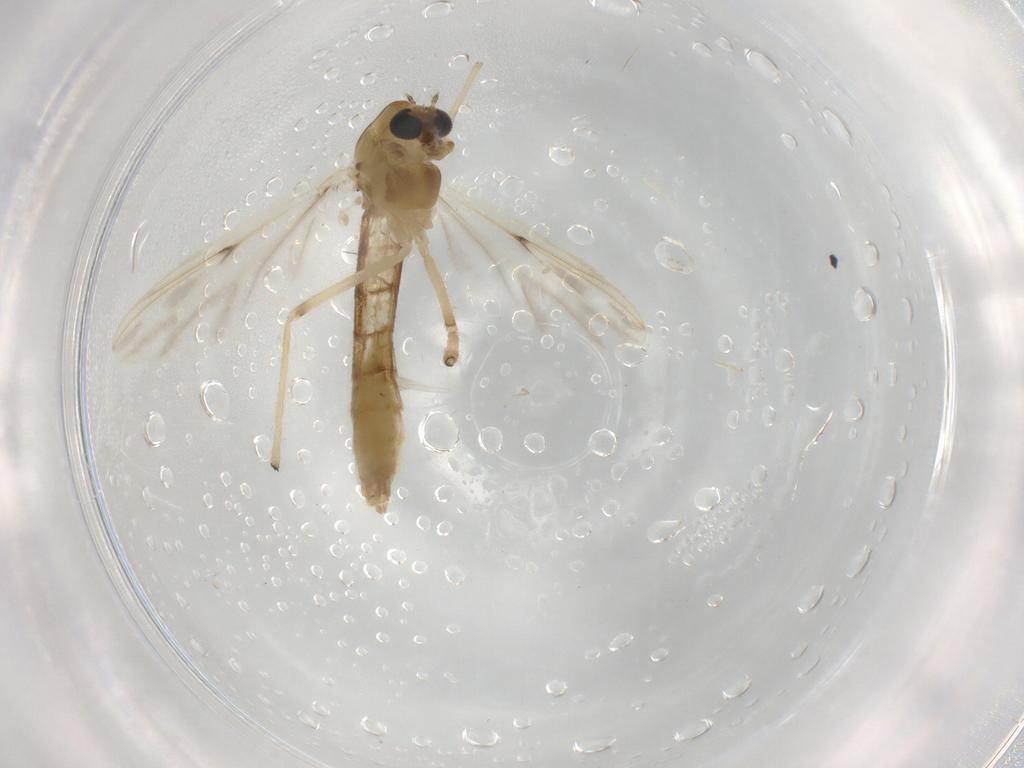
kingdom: Animalia
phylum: Arthropoda
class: Insecta
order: Diptera
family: Chironomidae
